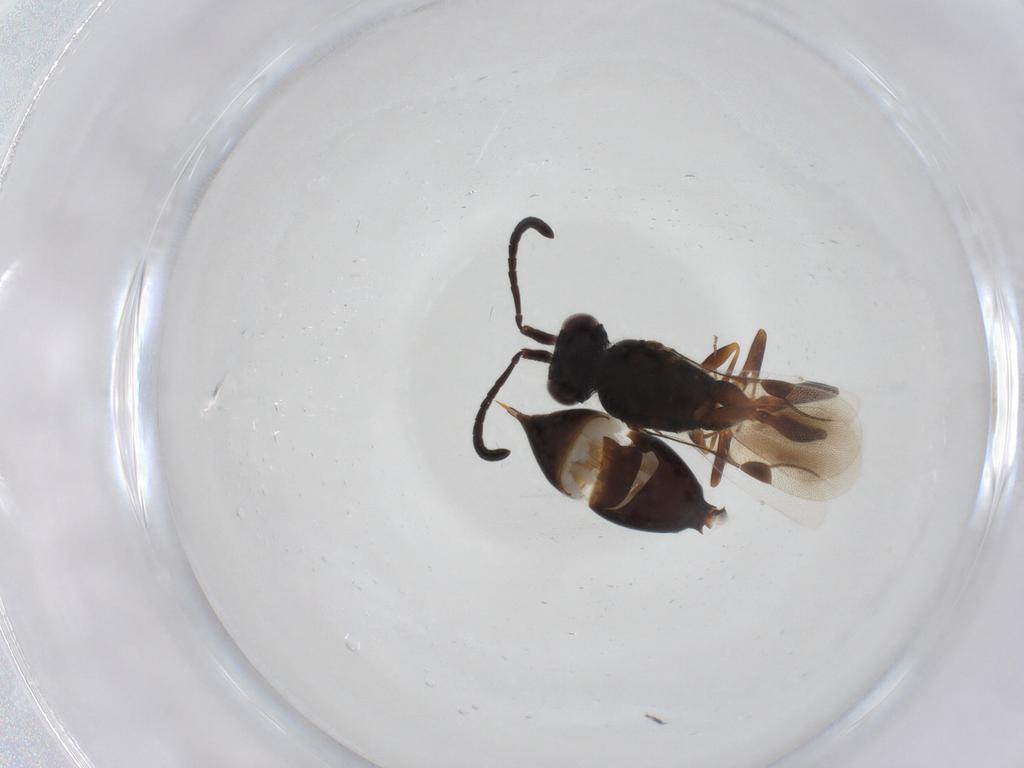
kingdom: Animalia
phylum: Arthropoda
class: Insecta
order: Hymenoptera
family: Megaspilidae
